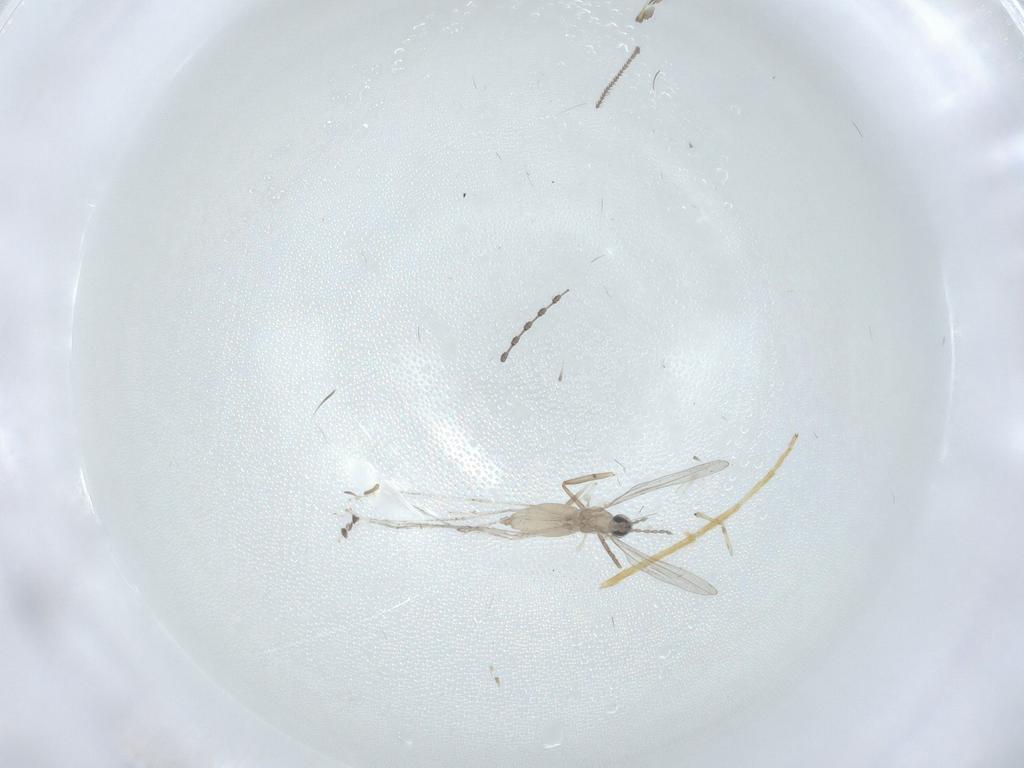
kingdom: Animalia
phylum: Arthropoda
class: Insecta
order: Diptera
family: Cecidomyiidae
